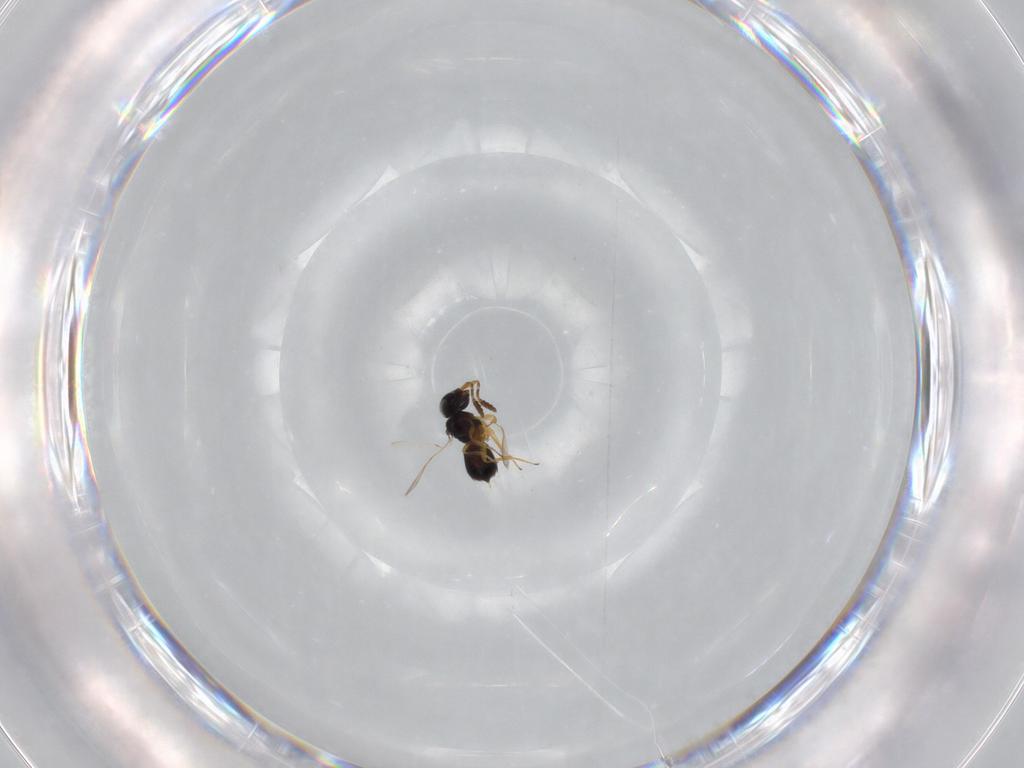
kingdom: Animalia
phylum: Arthropoda
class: Insecta
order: Hymenoptera
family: Scelionidae
